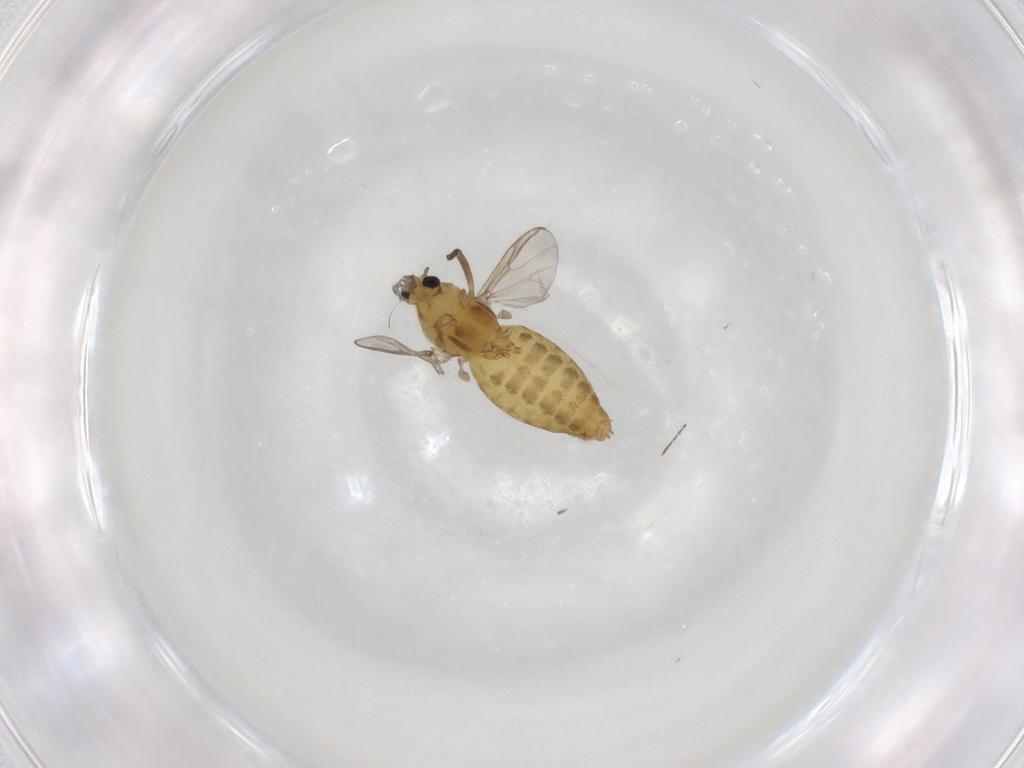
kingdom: Animalia
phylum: Arthropoda
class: Insecta
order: Diptera
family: Chironomidae
